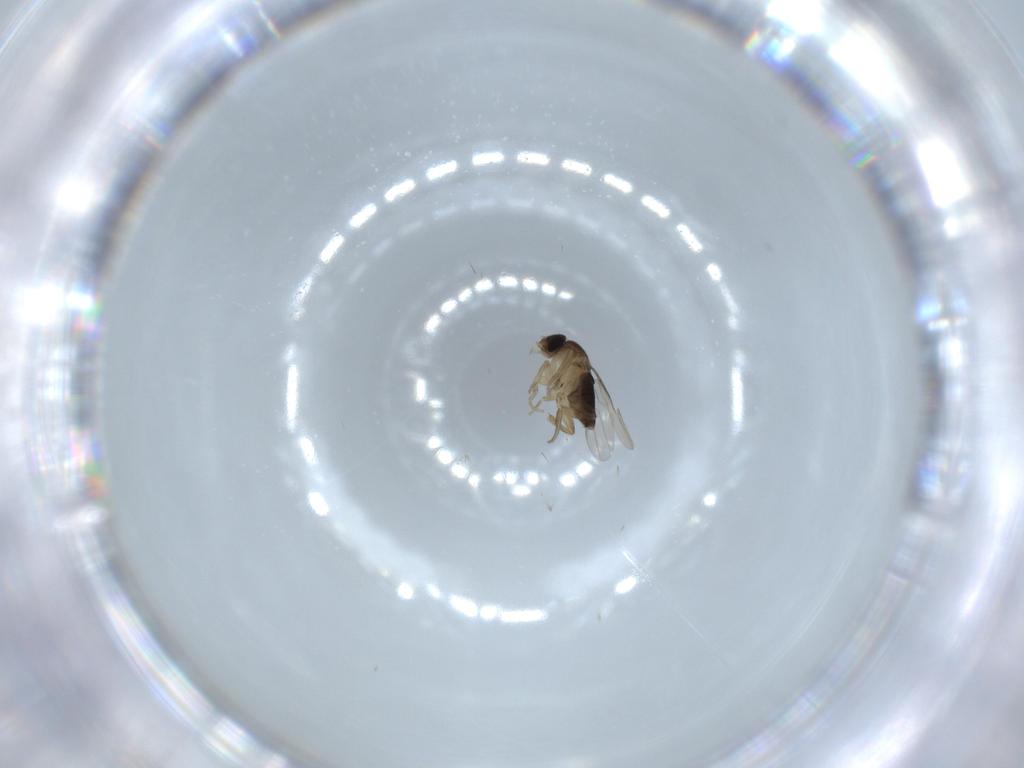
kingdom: Animalia
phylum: Arthropoda
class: Insecta
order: Diptera
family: Phoridae
